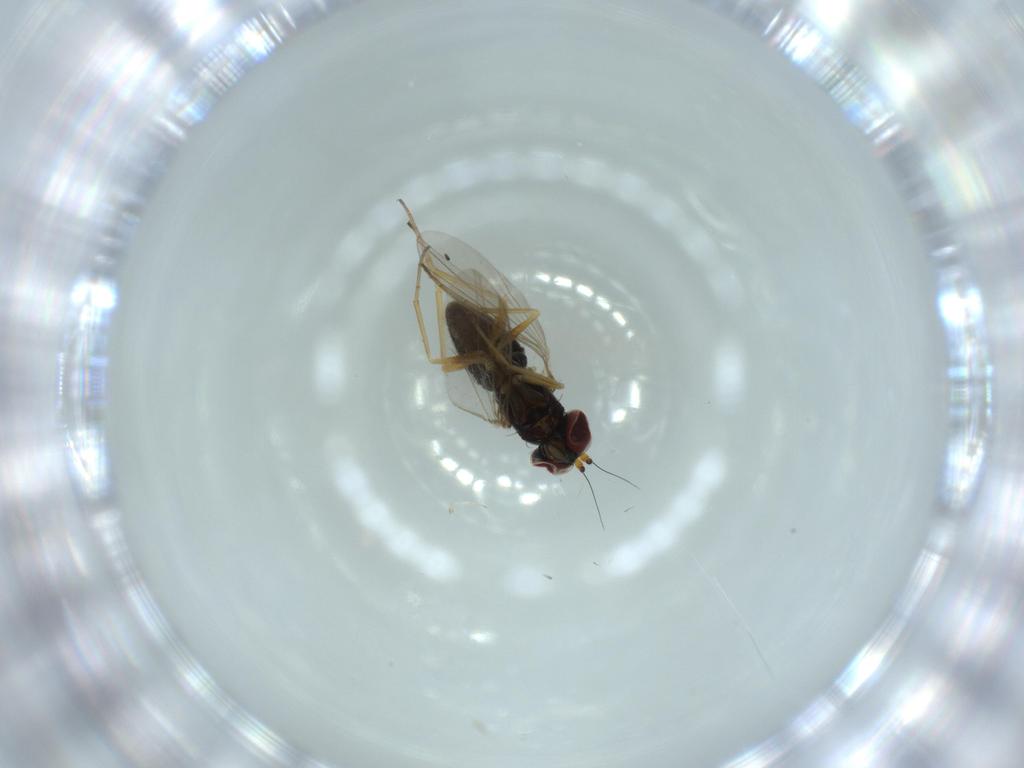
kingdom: Animalia
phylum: Arthropoda
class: Insecta
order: Diptera
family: Dolichopodidae
